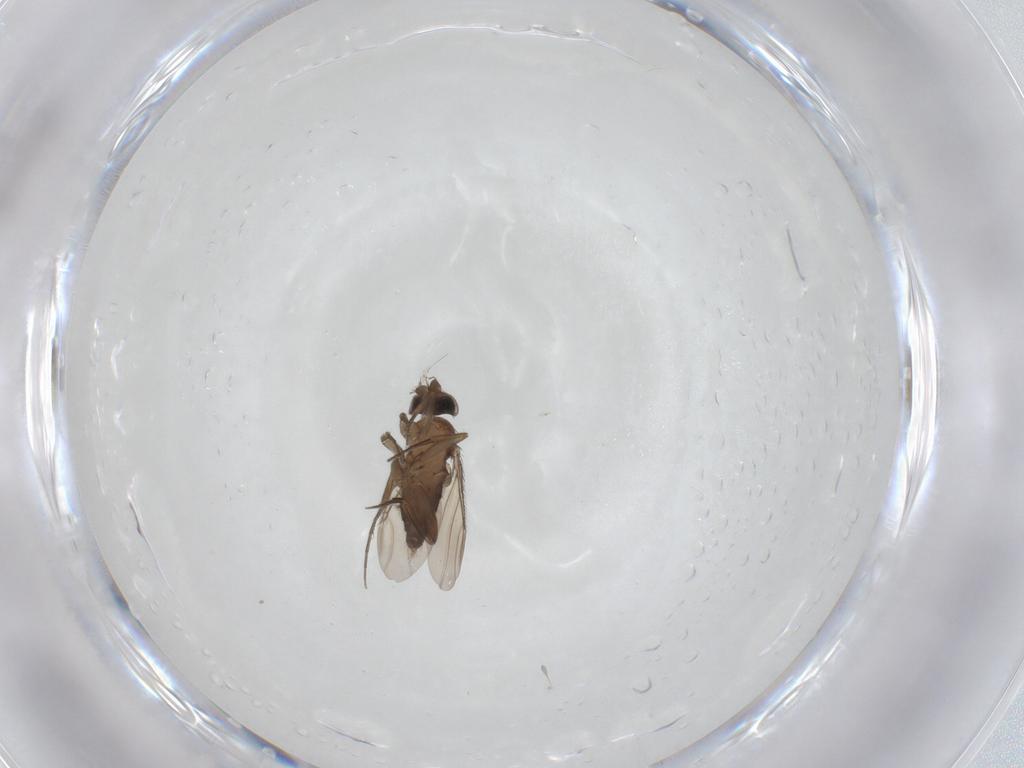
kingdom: Animalia
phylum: Arthropoda
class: Insecta
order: Diptera
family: Phoridae
